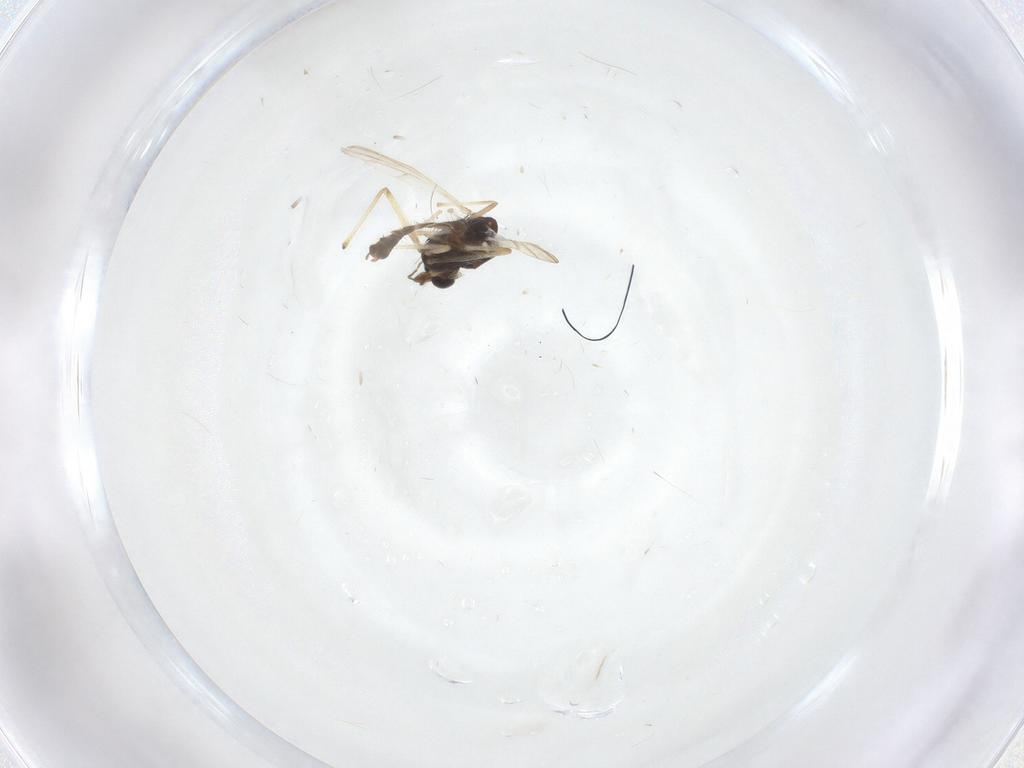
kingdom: Animalia
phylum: Arthropoda
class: Insecta
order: Diptera
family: Chironomidae
